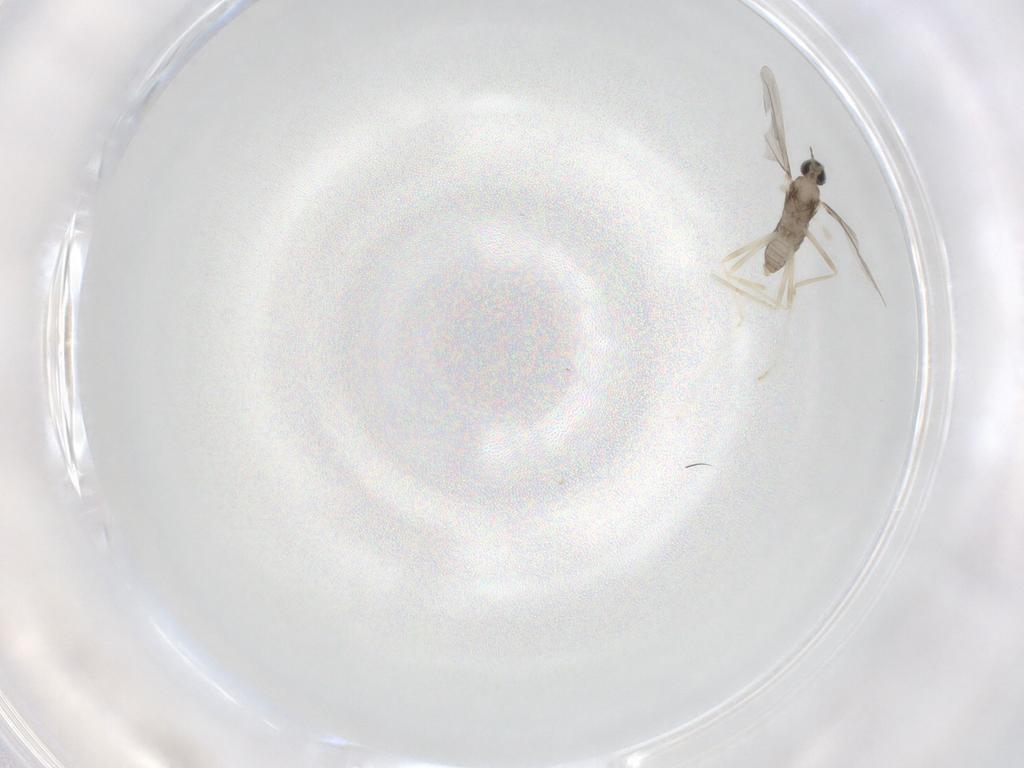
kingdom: Animalia
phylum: Arthropoda
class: Insecta
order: Diptera
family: Cecidomyiidae
